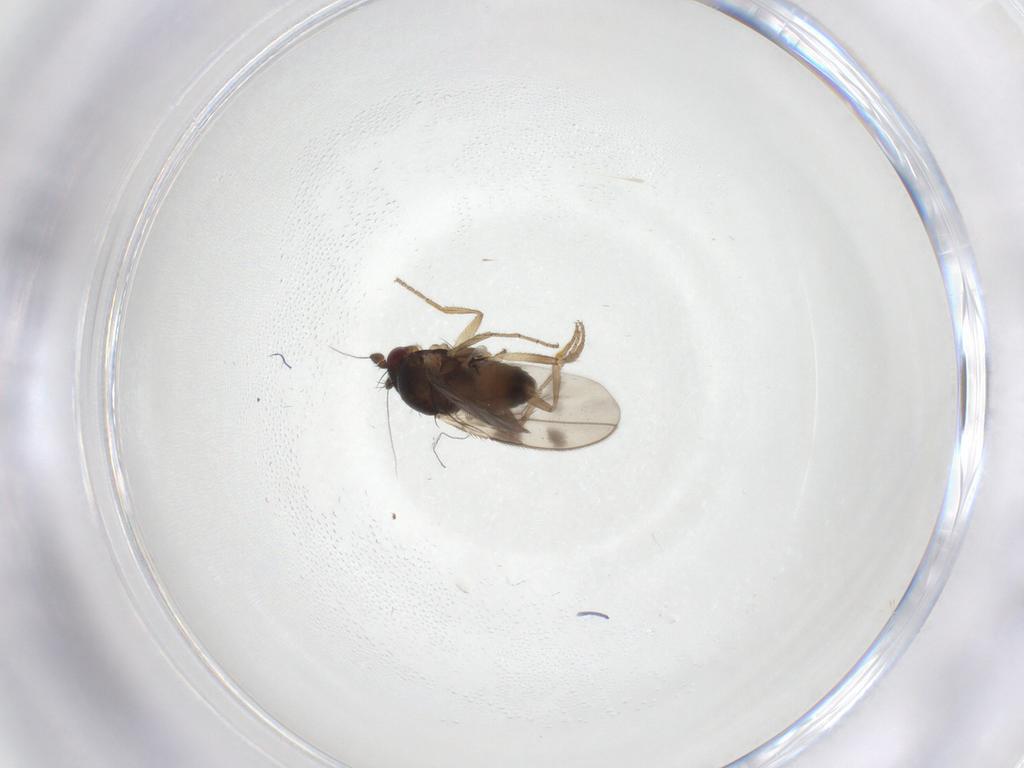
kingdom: Animalia
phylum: Arthropoda
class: Insecta
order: Diptera
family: Sphaeroceridae
